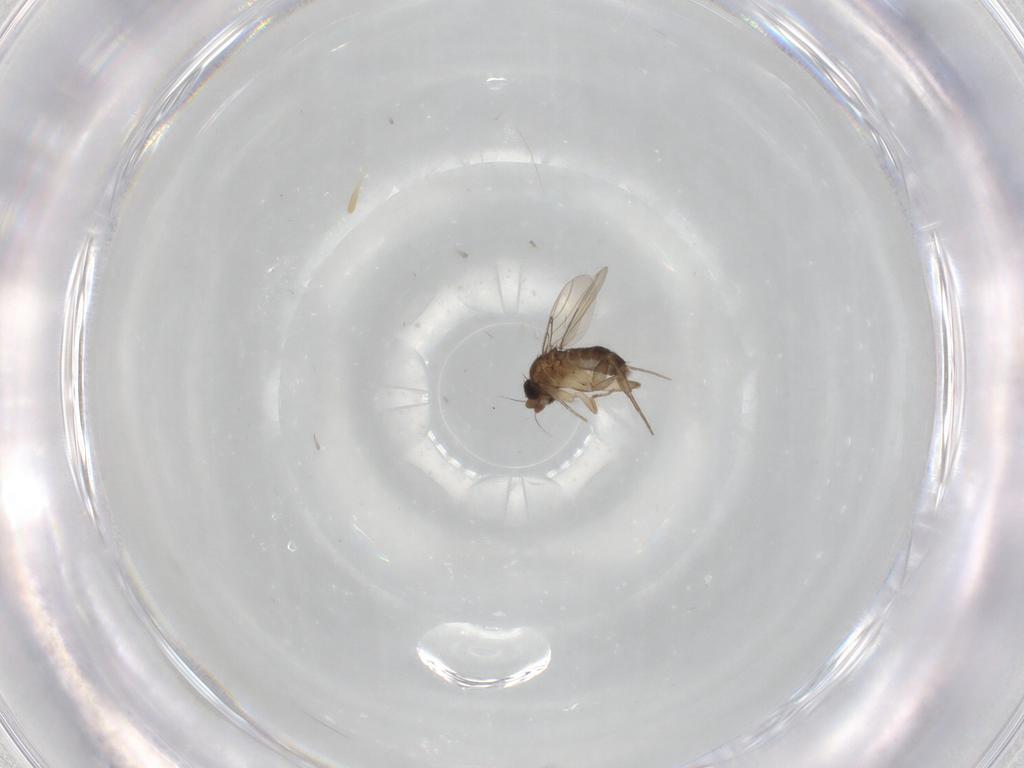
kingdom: Animalia
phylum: Arthropoda
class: Insecta
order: Diptera
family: Phoridae
